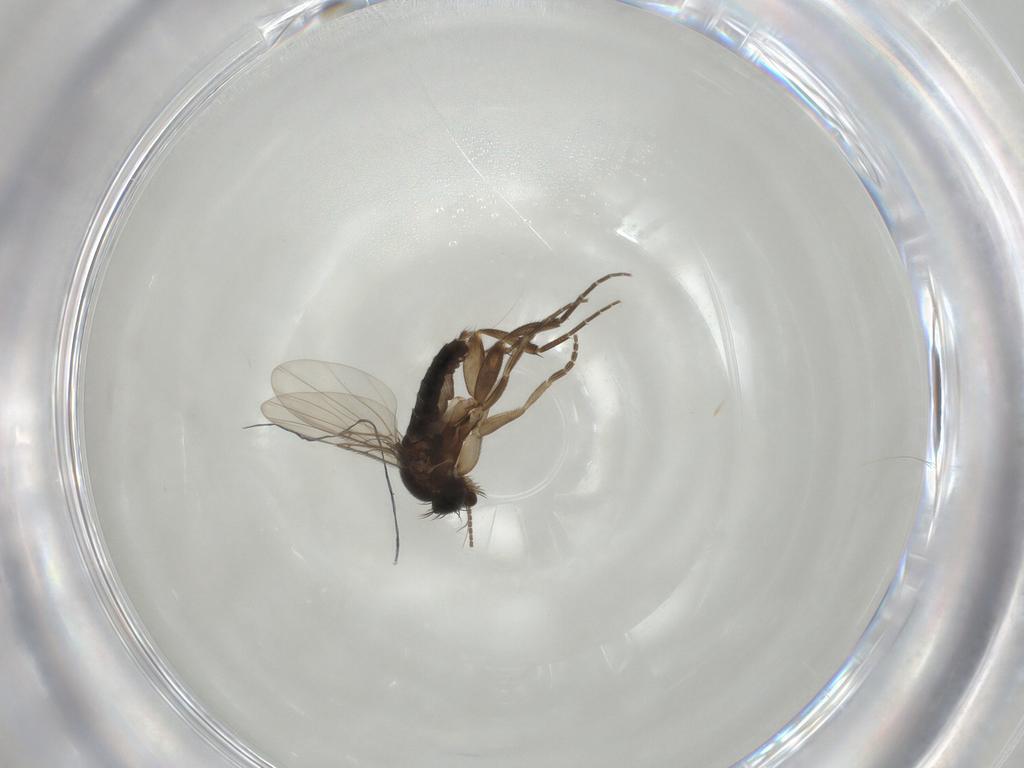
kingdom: Animalia
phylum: Arthropoda
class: Insecta
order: Diptera
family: Phoridae
